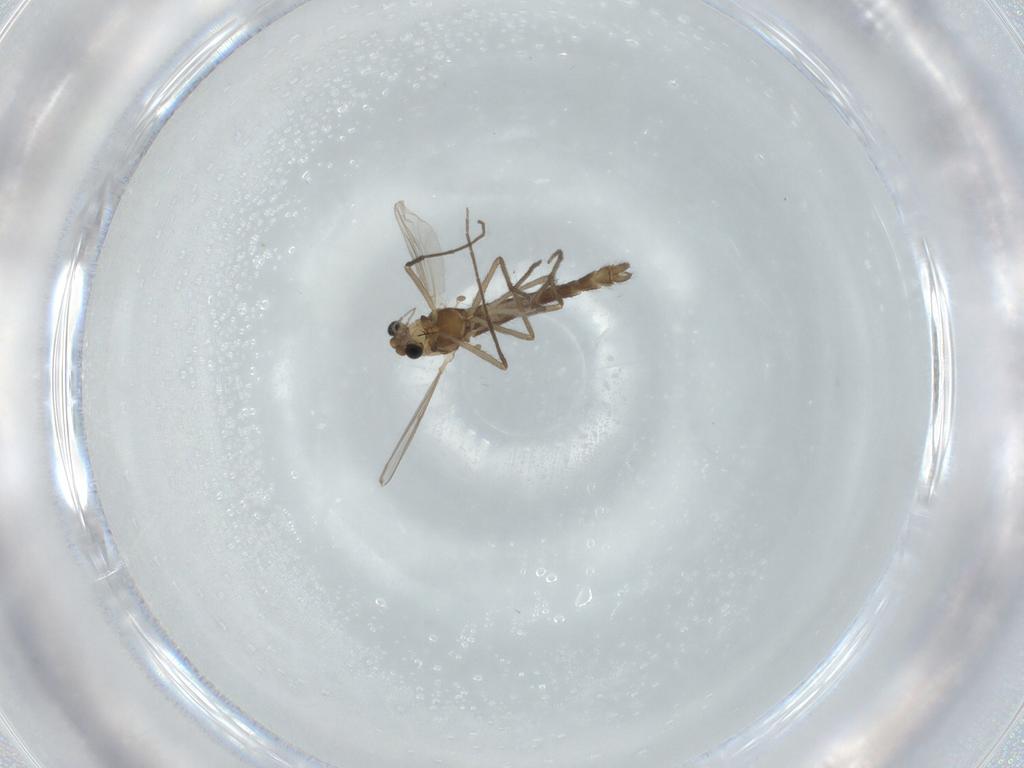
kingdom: Animalia
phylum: Arthropoda
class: Insecta
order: Diptera
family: Chironomidae
